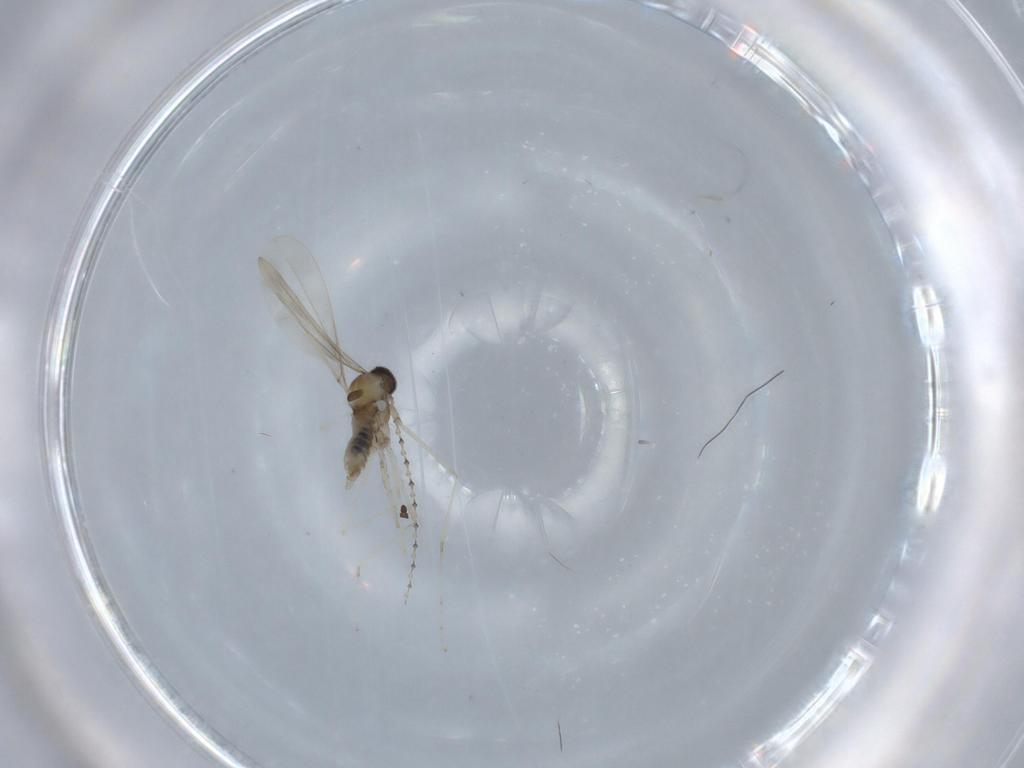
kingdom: Animalia
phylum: Arthropoda
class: Insecta
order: Diptera
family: Cecidomyiidae
